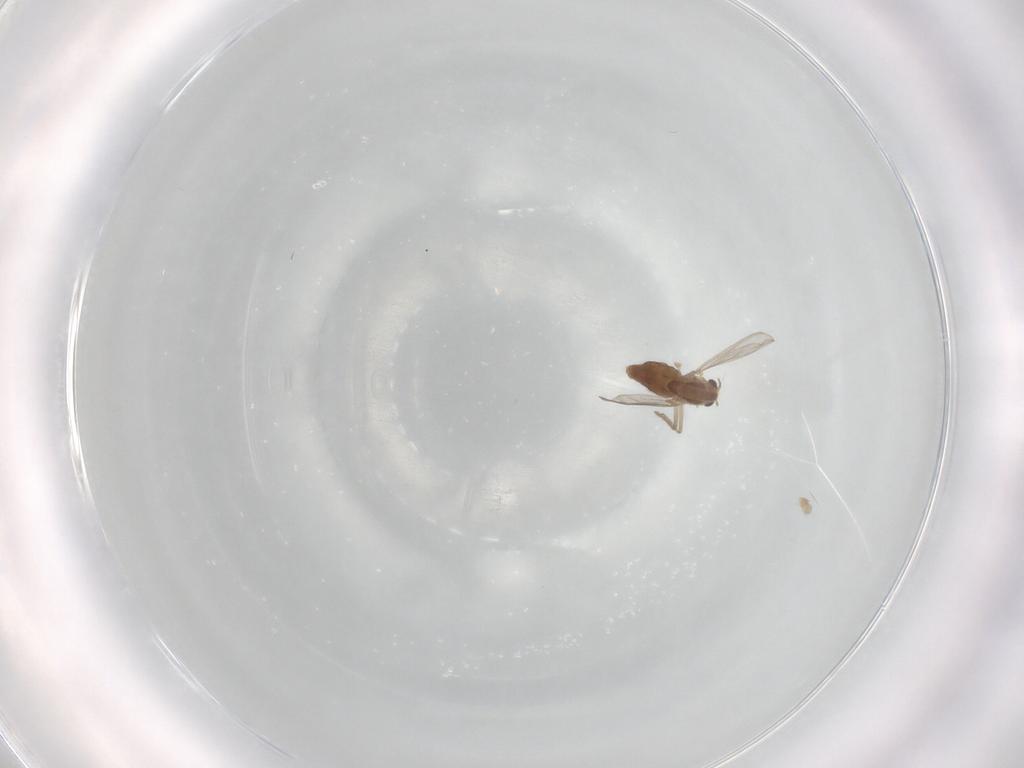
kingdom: Animalia
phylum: Arthropoda
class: Insecta
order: Diptera
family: Chironomidae
